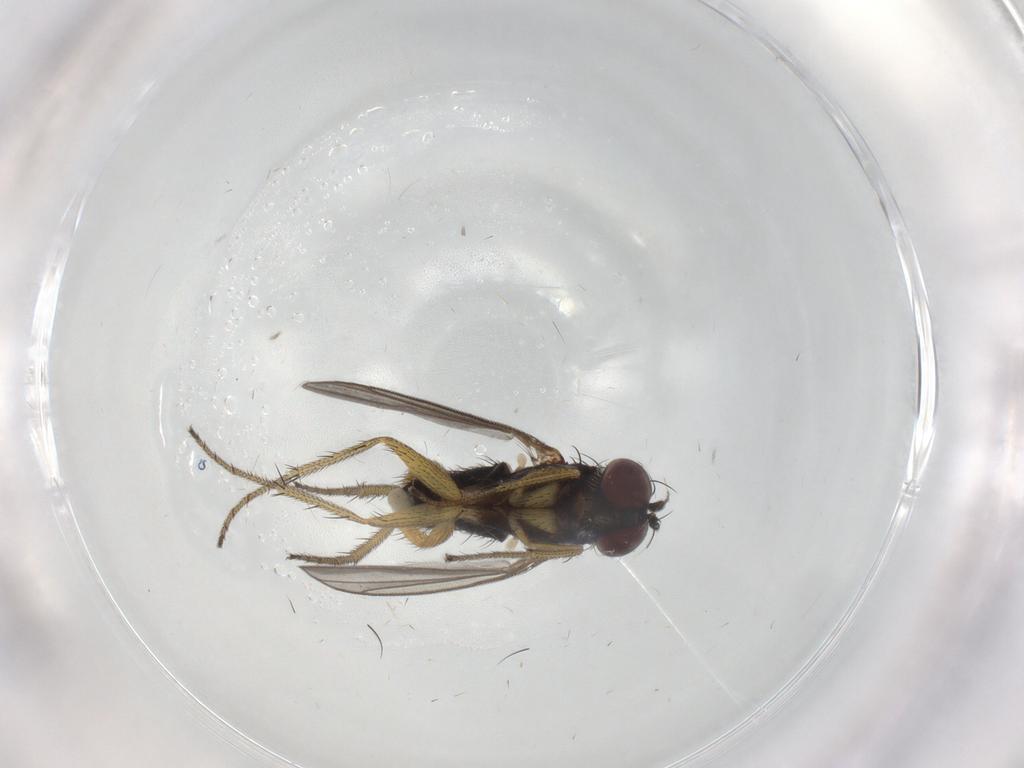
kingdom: Animalia
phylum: Arthropoda
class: Insecta
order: Diptera
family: Dolichopodidae
